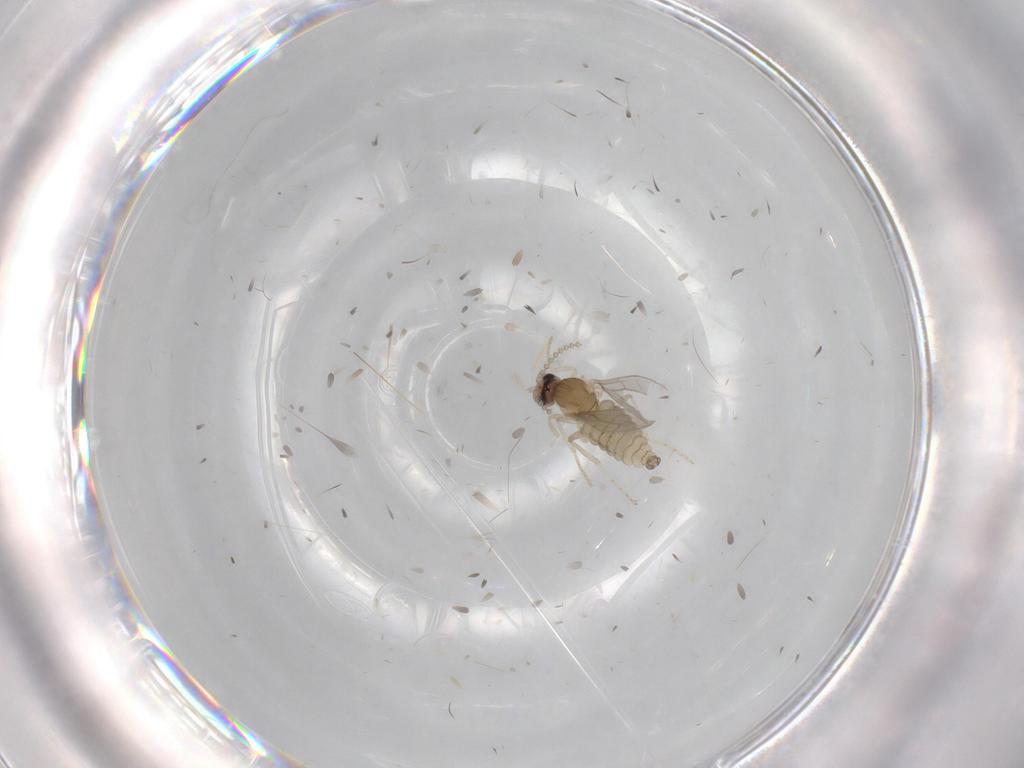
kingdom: Animalia
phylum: Arthropoda
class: Insecta
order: Diptera
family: Cecidomyiidae
